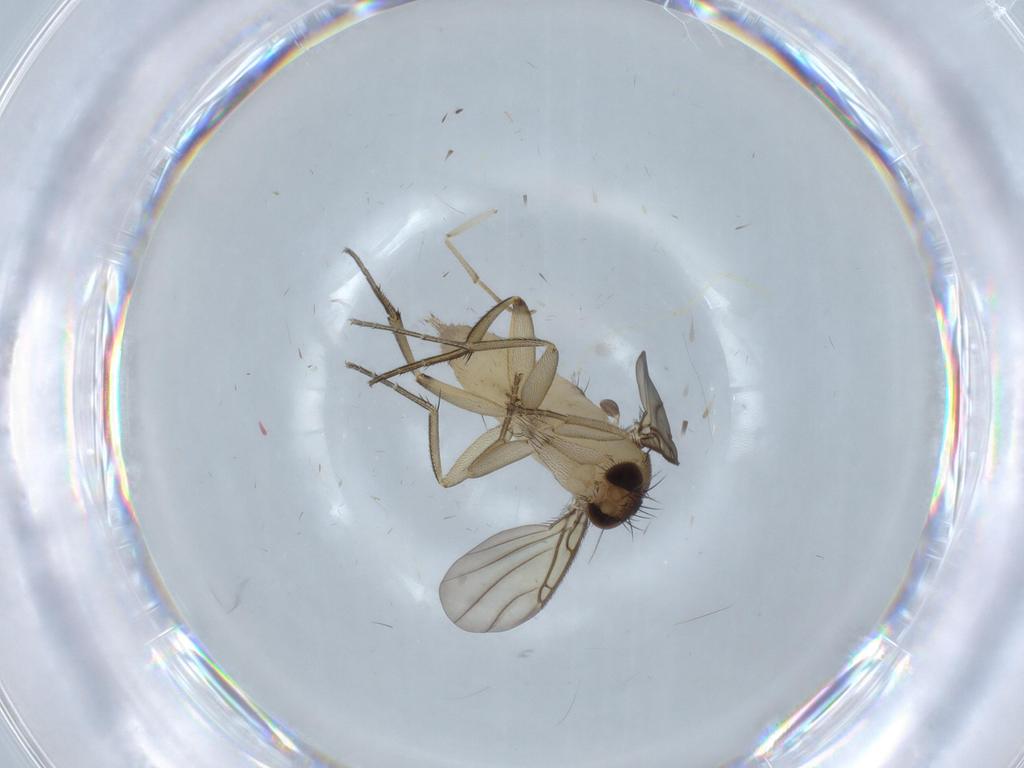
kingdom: Animalia
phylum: Arthropoda
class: Insecta
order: Diptera
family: Phoridae
